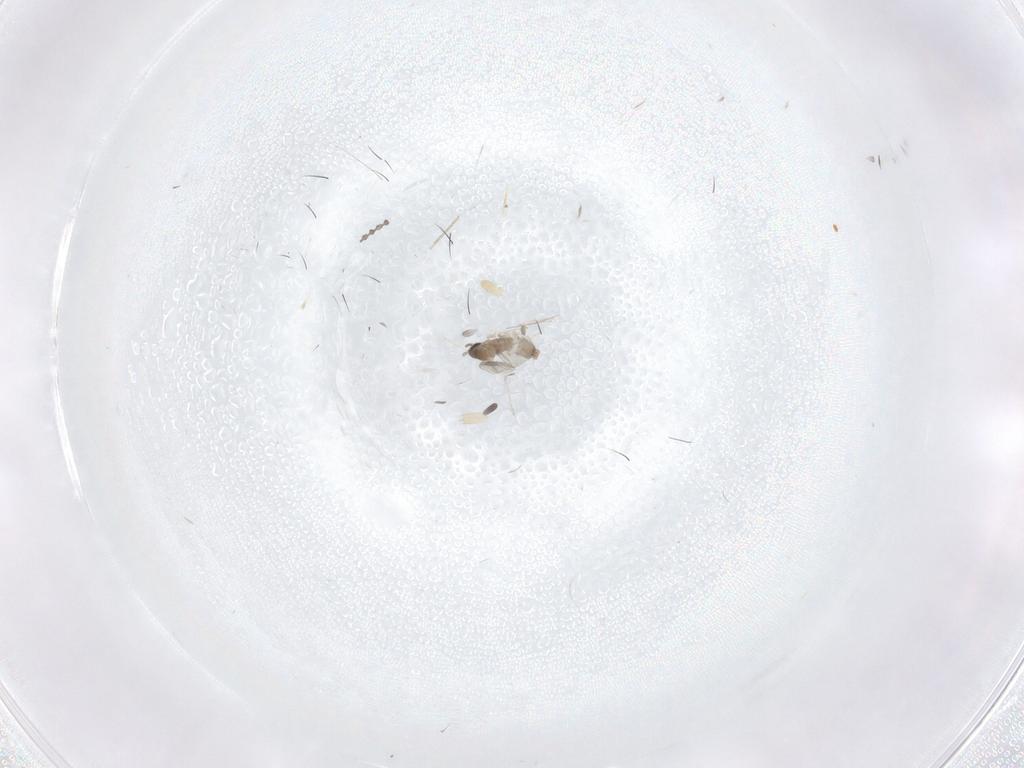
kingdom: Animalia
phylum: Arthropoda
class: Insecta
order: Diptera
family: Cecidomyiidae
